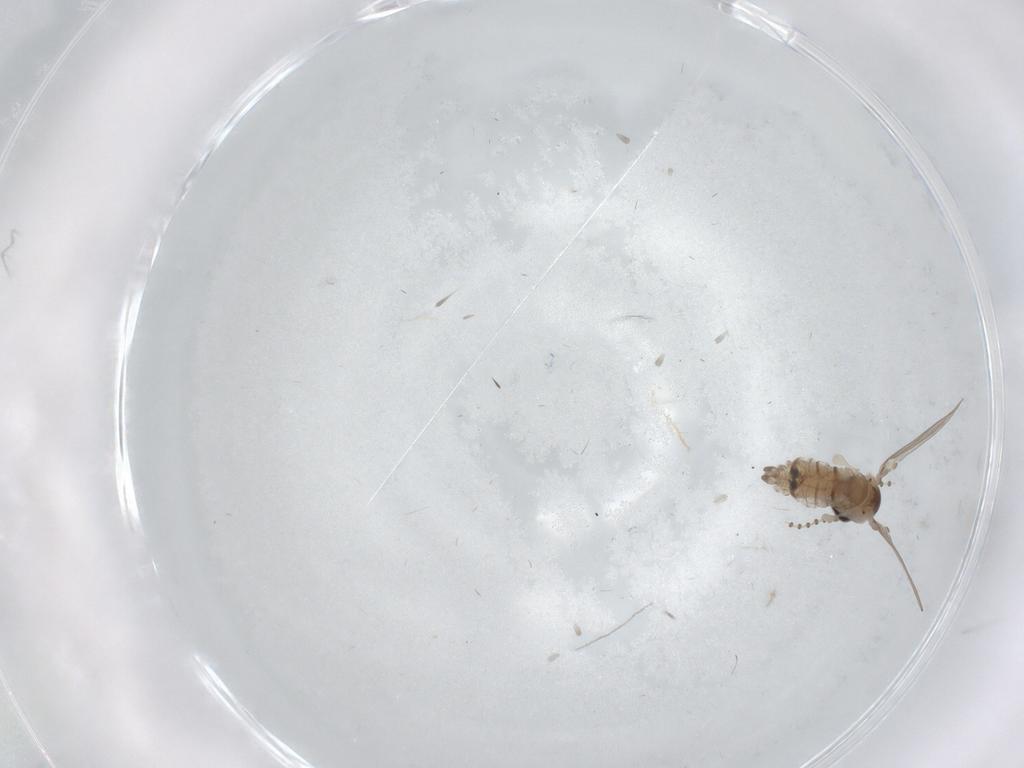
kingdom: Animalia
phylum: Arthropoda
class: Insecta
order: Diptera
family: Psychodidae
